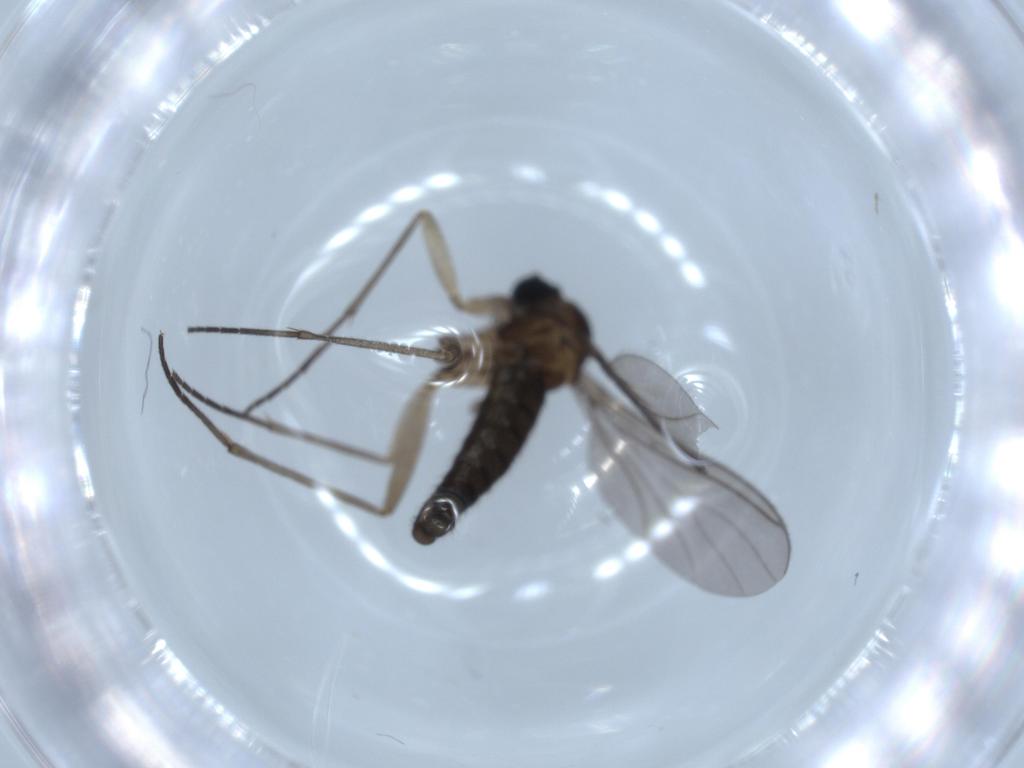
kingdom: Animalia
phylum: Arthropoda
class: Insecta
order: Diptera
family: Sciaridae
